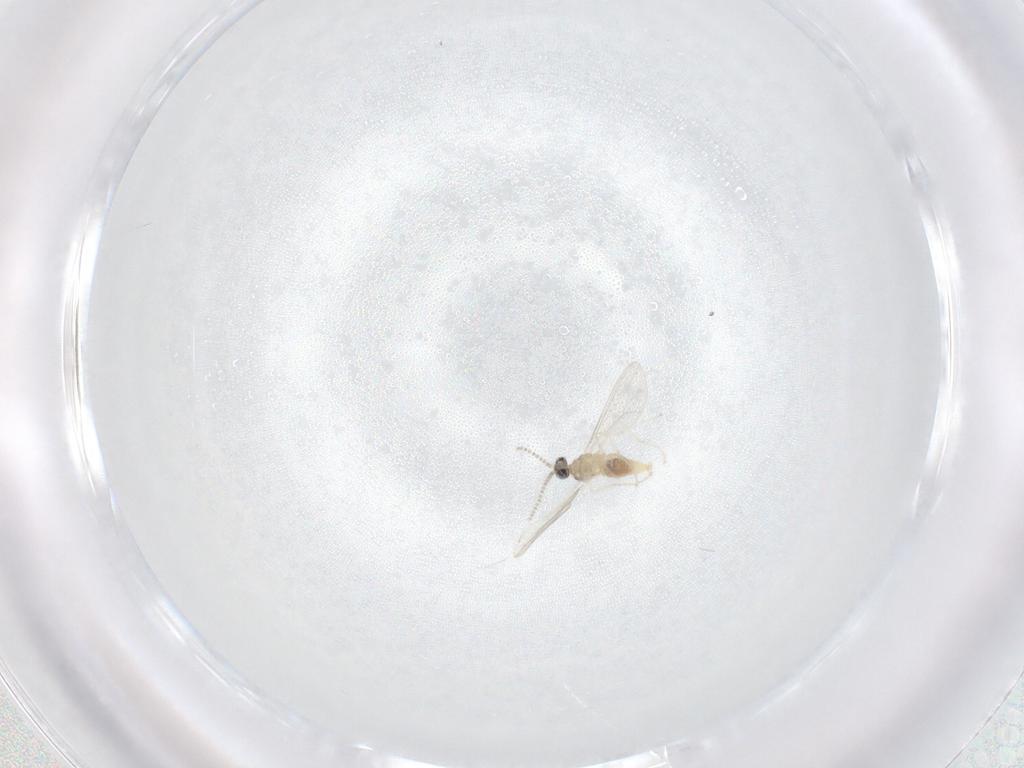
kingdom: Animalia
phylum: Arthropoda
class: Insecta
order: Diptera
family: Cecidomyiidae
